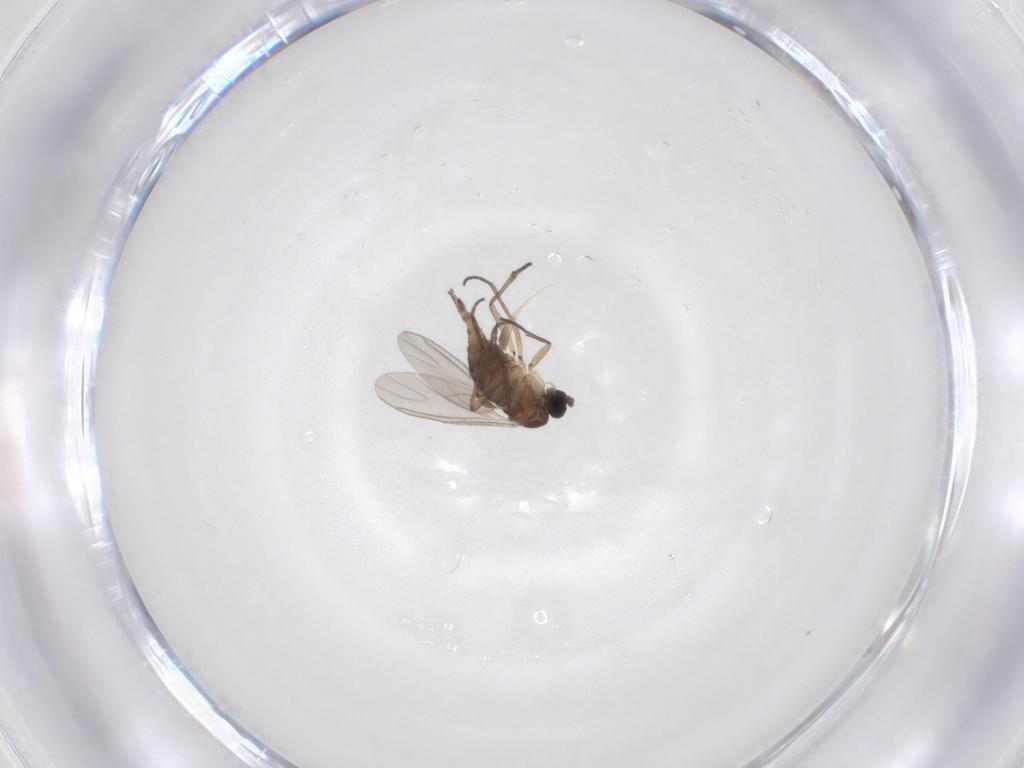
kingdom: Animalia
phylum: Arthropoda
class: Insecta
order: Diptera
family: Sciaridae
